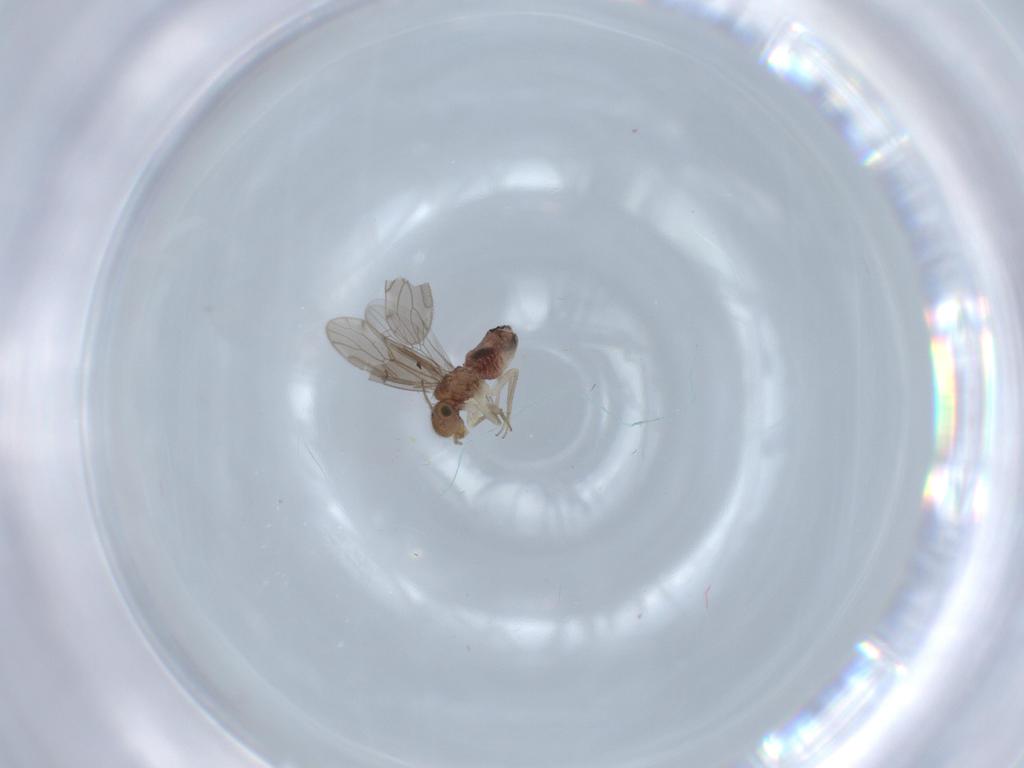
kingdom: Animalia
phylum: Arthropoda
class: Insecta
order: Psocodea
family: Ectopsocidae
